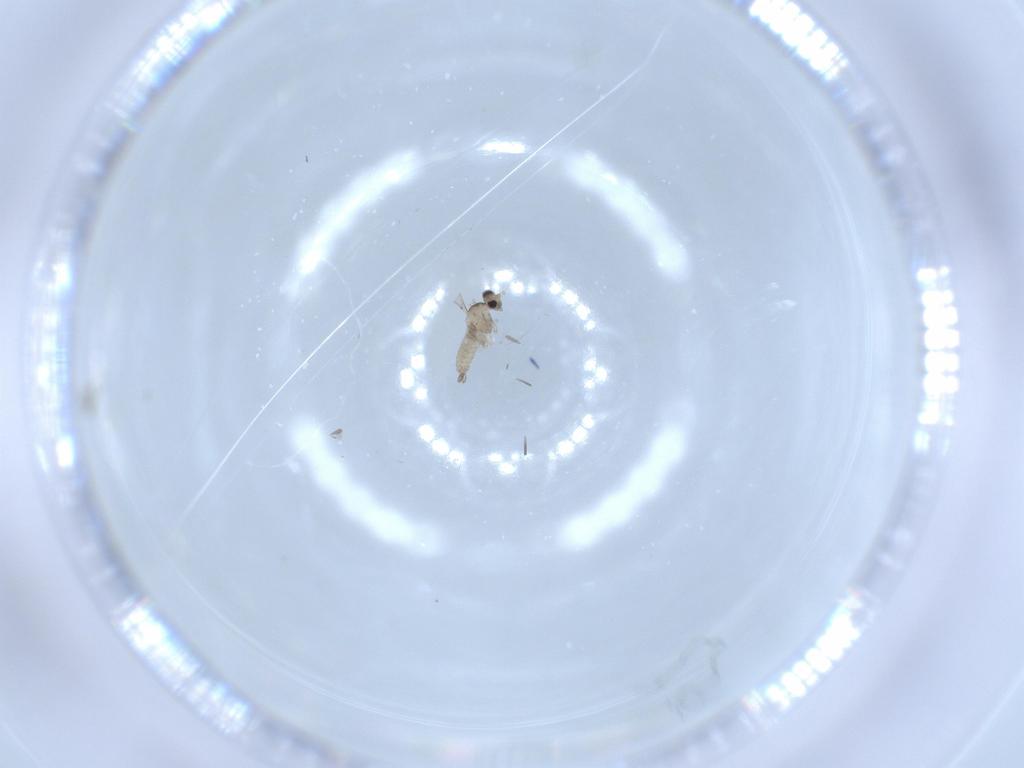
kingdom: Animalia
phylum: Arthropoda
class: Insecta
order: Diptera
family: Cecidomyiidae
